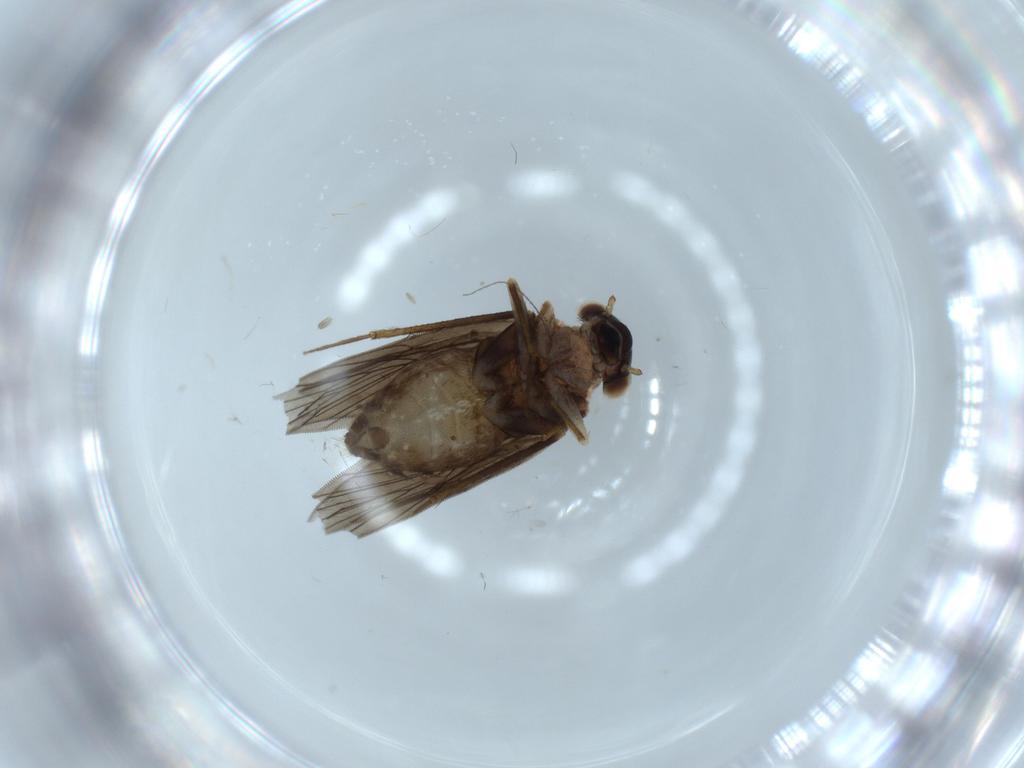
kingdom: Animalia
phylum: Arthropoda
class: Insecta
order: Psocodea
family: Lepidopsocidae
